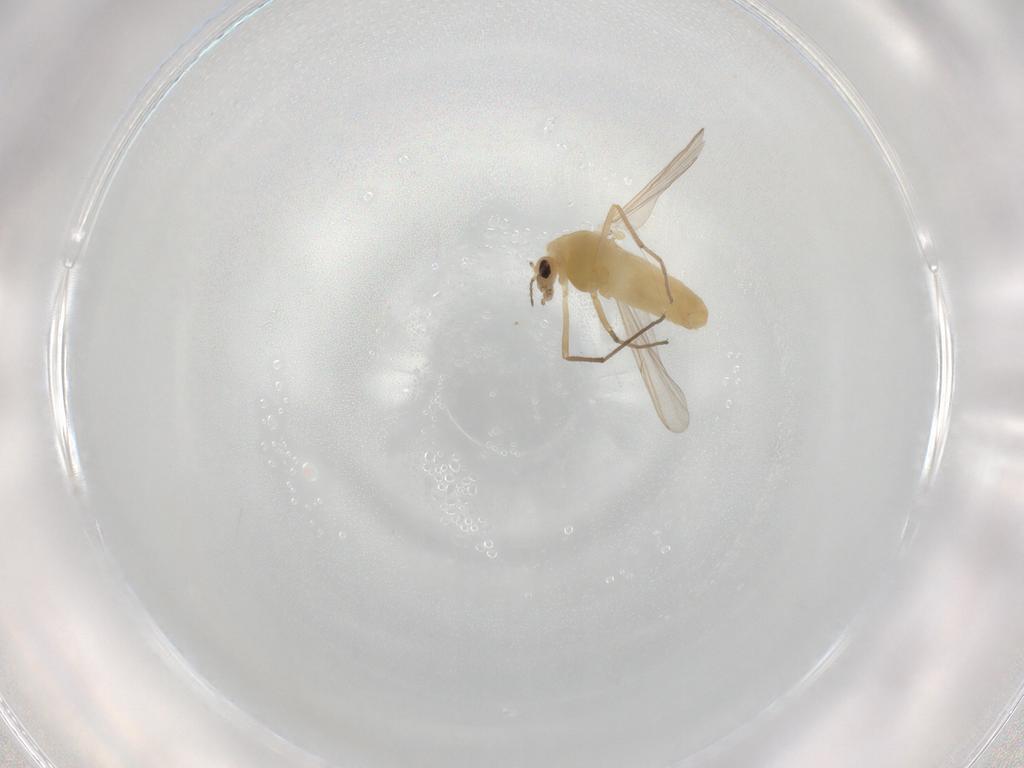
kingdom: Animalia
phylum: Arthropoda
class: Insecta
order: Diptera
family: Chironomidae
